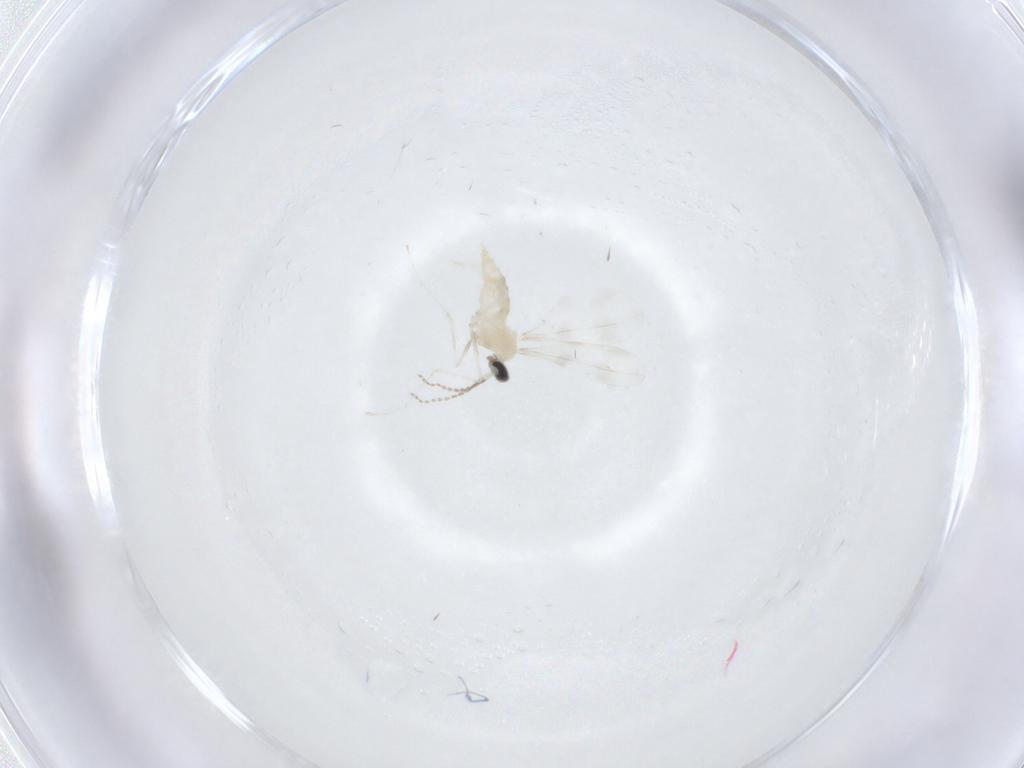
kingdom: Animalia
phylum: Arthropoda
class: Insecta
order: Diptera
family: Cecidomyiidae
